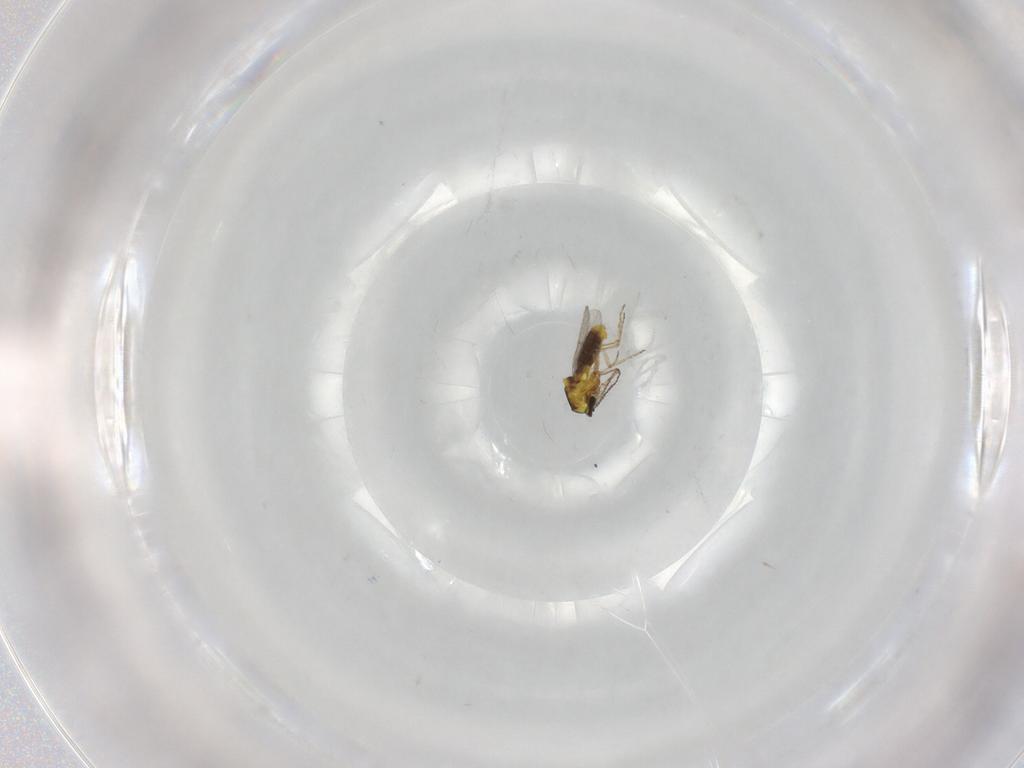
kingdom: Animalia
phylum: Arthropoda
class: Insecta
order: Diptera
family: Ceratopogonidae
